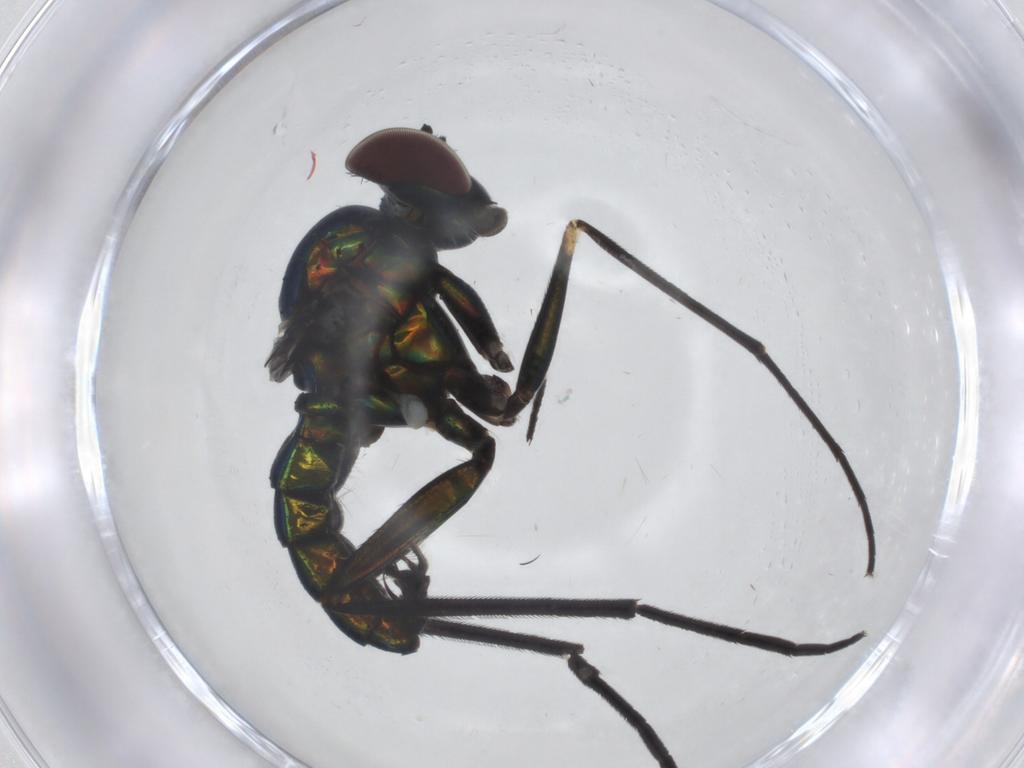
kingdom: Animalia
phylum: Arthropoda
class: Insecta
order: Diptera
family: Dolichopodidae
